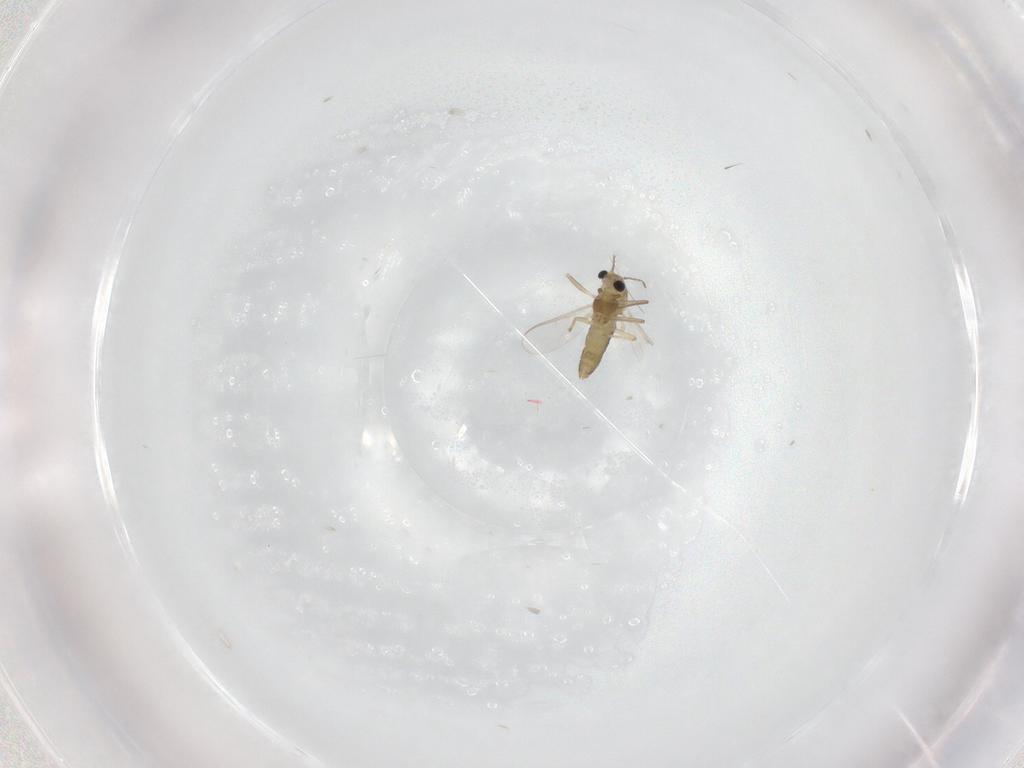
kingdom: Animalia
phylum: Arthropoda
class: Insecta
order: Diptera
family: Chironomidae
